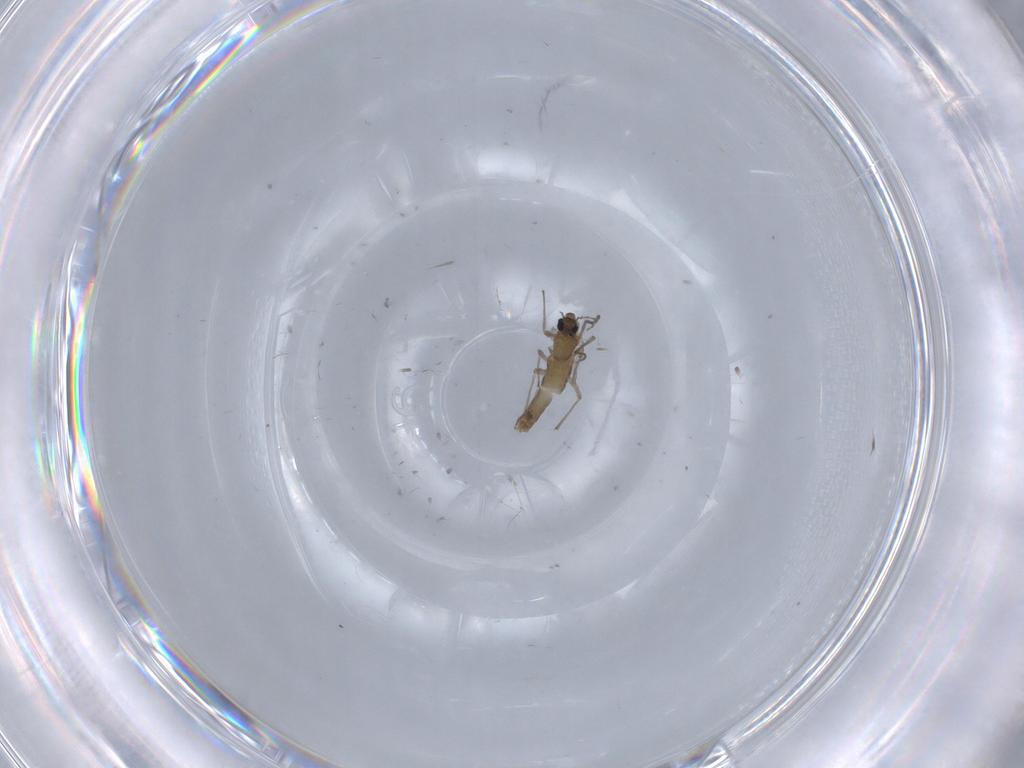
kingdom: Animalia
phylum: Arthropoda
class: Insecta
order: Diptera
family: Chironomidae
